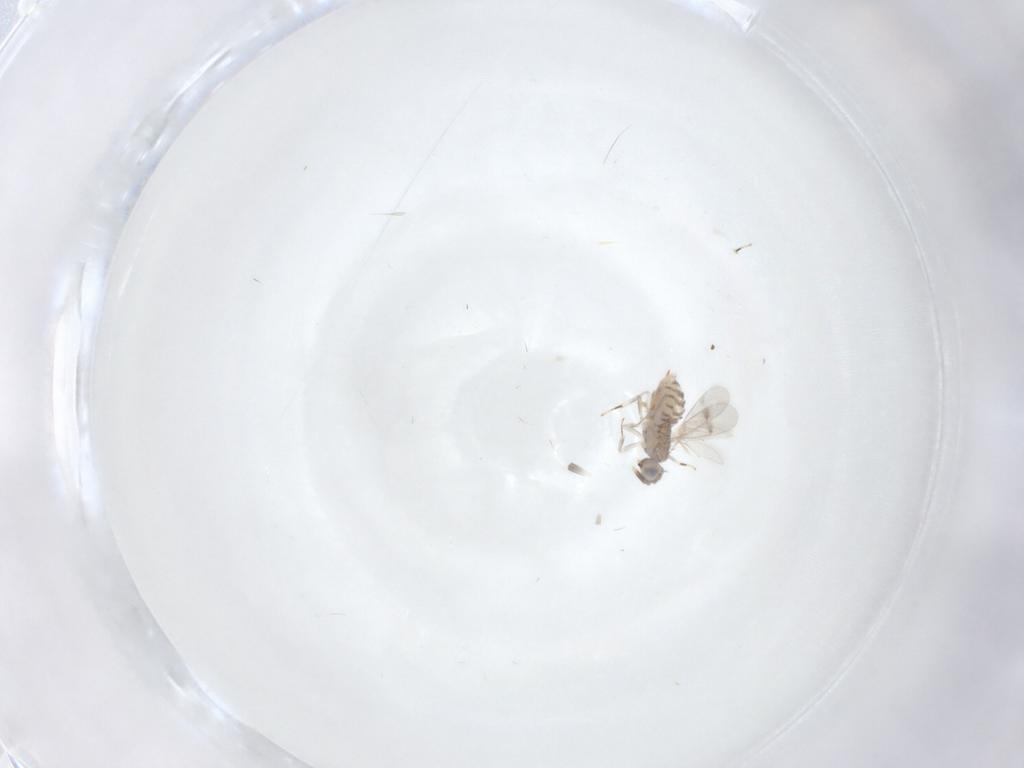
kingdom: Animalia
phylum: Arthropoda
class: Insecta
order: Hymenoptera
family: Aphelinidae
